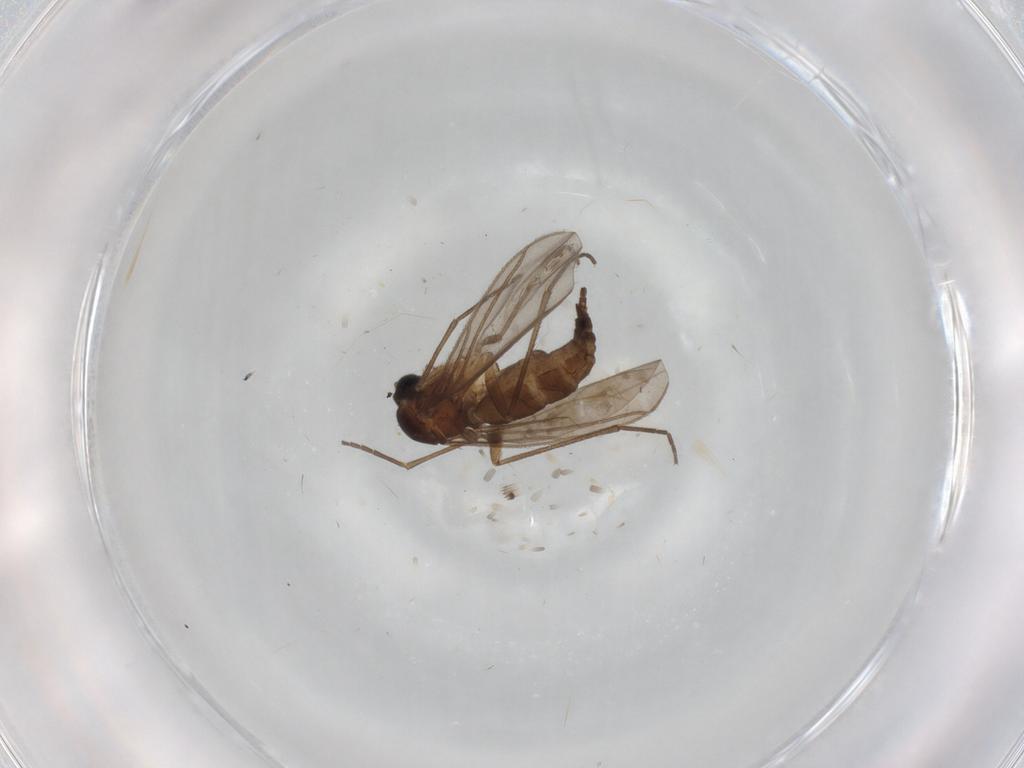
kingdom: Animalia
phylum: Arthropoda
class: Insecta
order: Diptera
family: Sciaridae
